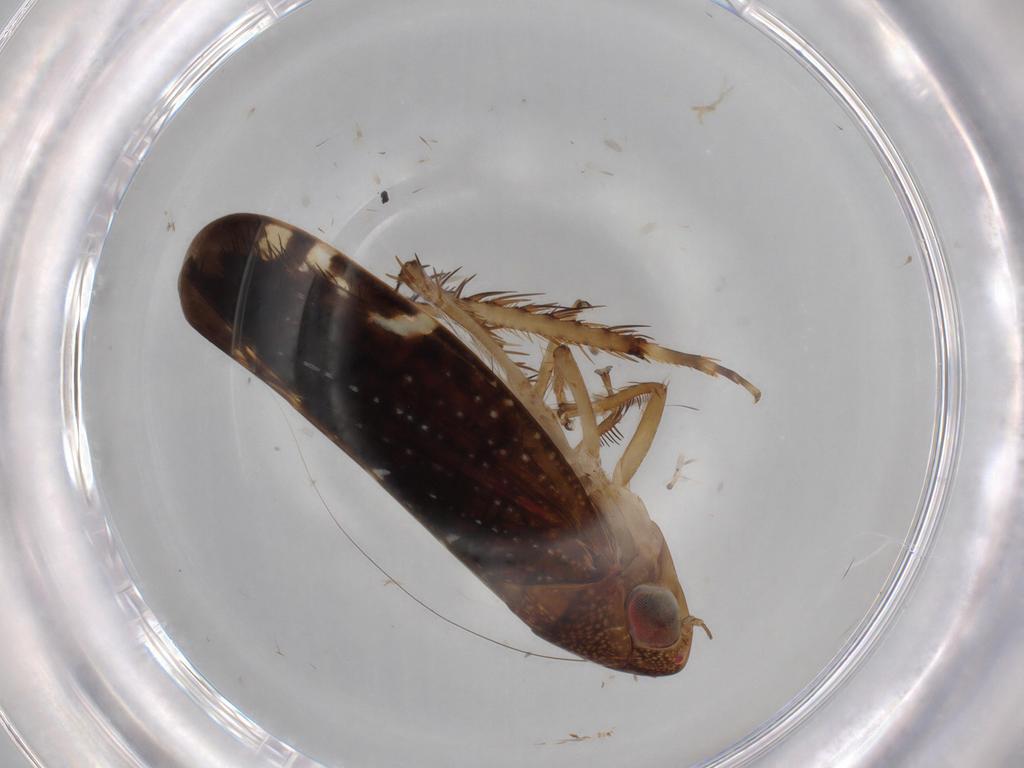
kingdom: Animalia
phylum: Arthropoda
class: Insecta
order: Hemiptera
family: Cicadellidae
